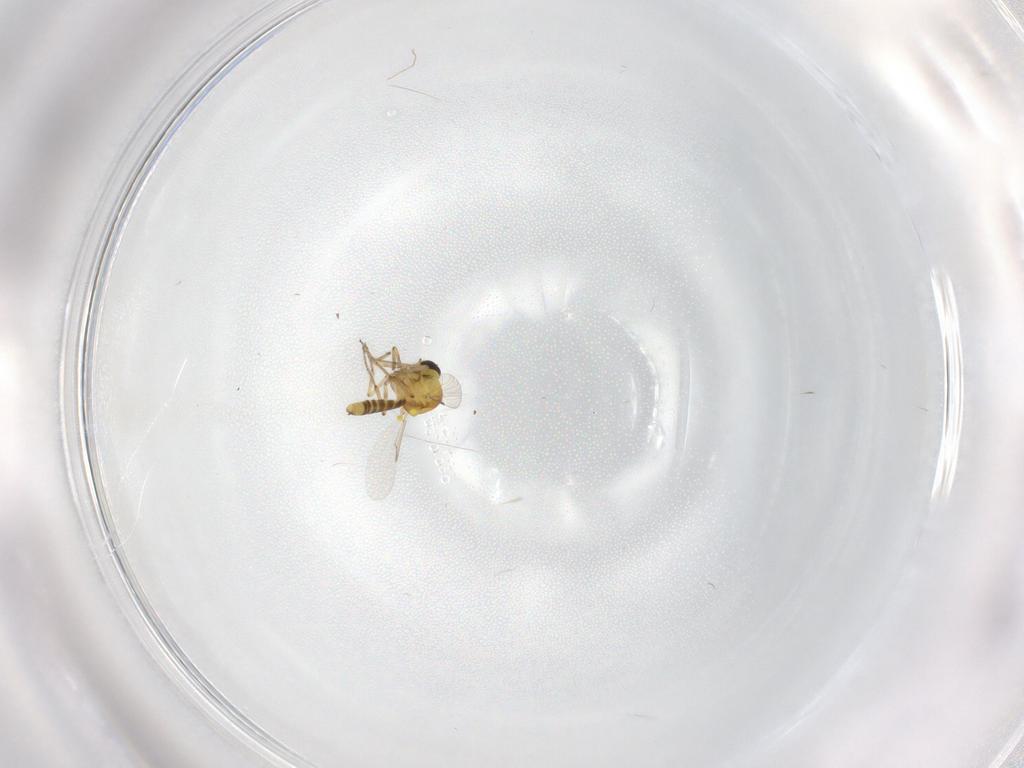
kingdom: Animalia
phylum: Arthropoda
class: Insecta
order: Diptera
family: Ceratopogonidae
